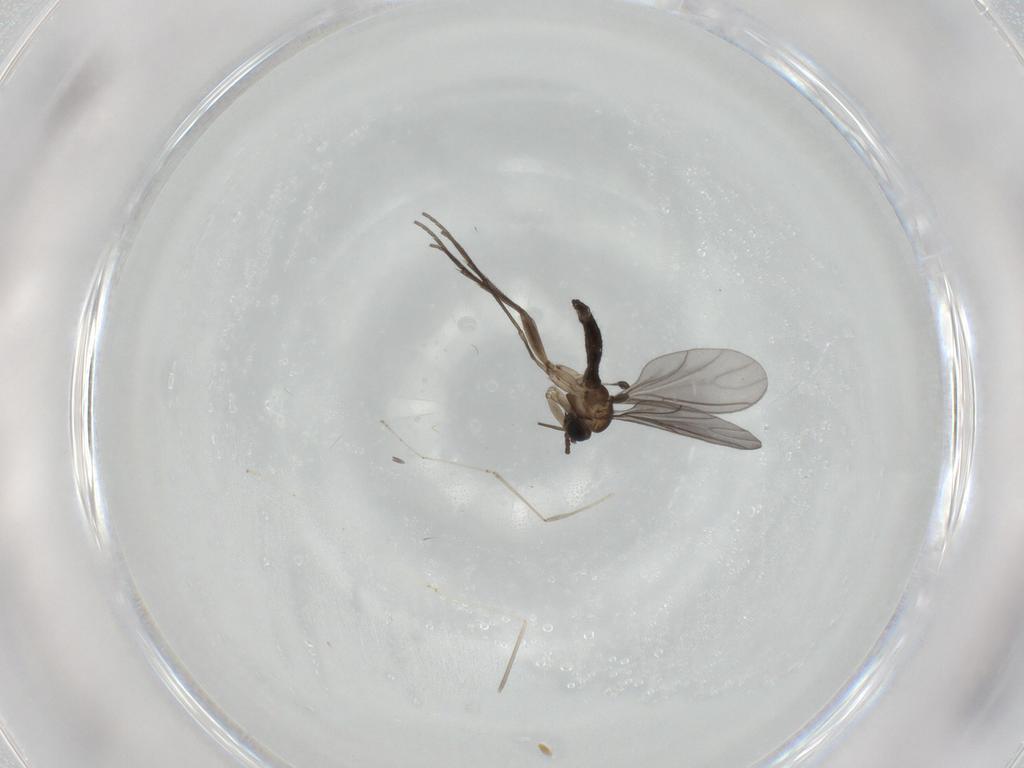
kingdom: Animalia
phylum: Arthropoda
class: Insecta
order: Diptera
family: Sciaridae
